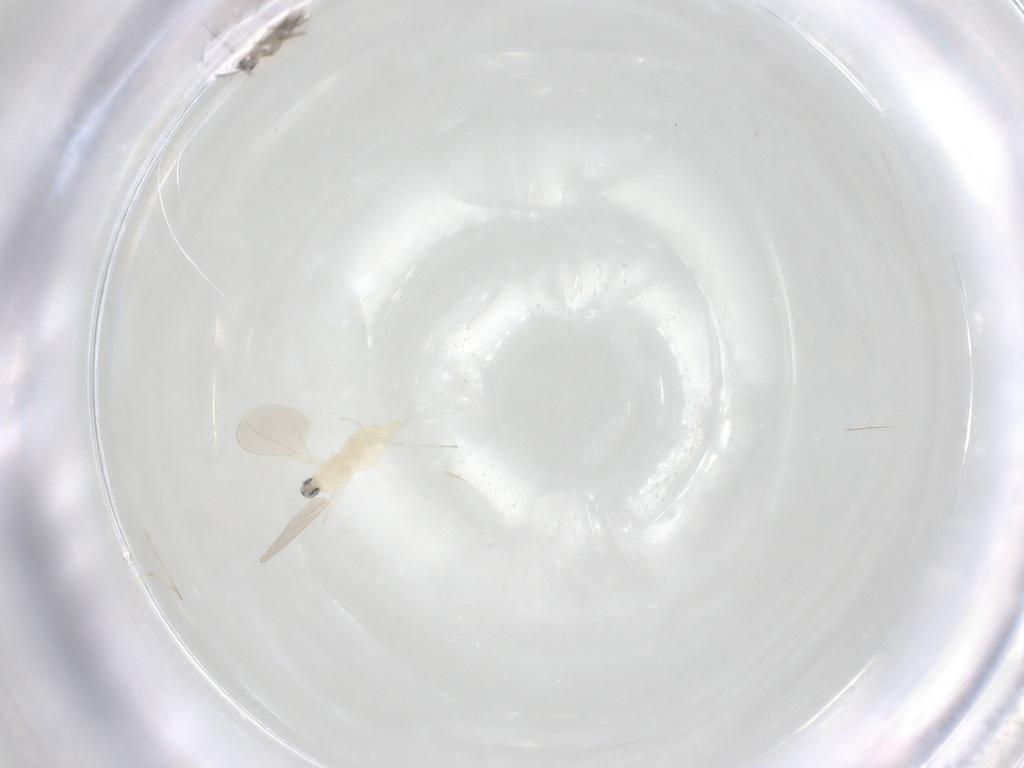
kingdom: Animalia
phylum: Arthropoda
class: Insecta
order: Diptera
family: Cecidomyiidae
